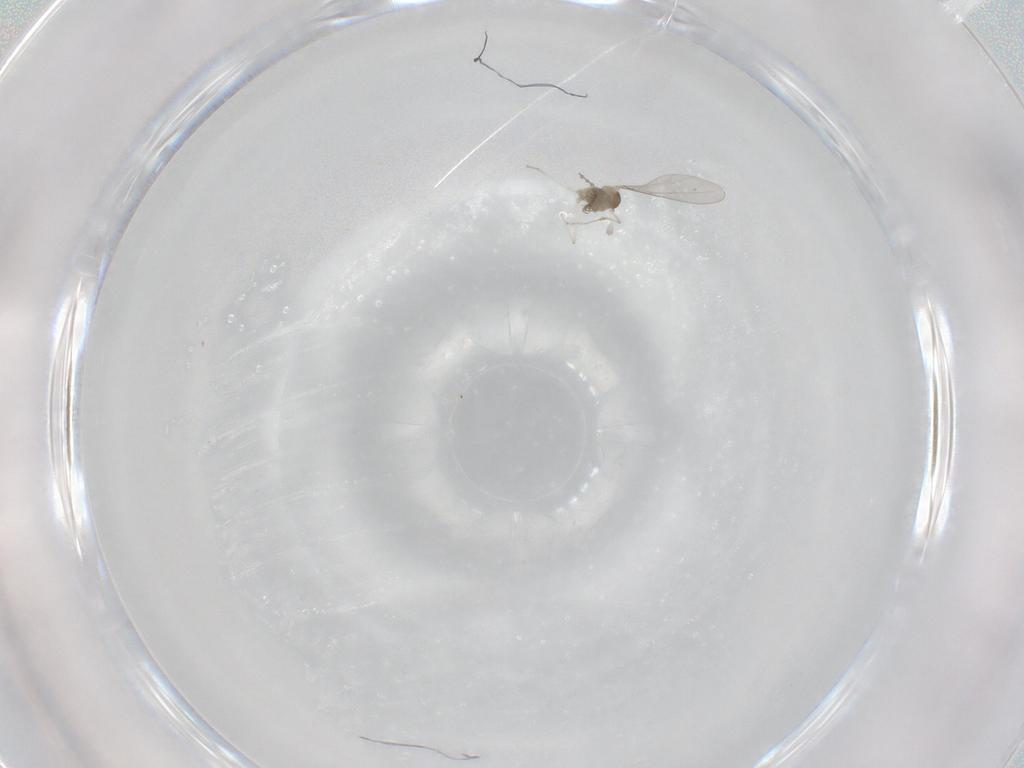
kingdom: Animalia
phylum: Arthropoda
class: Insecta
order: Diptera
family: Cecidomyiidae
